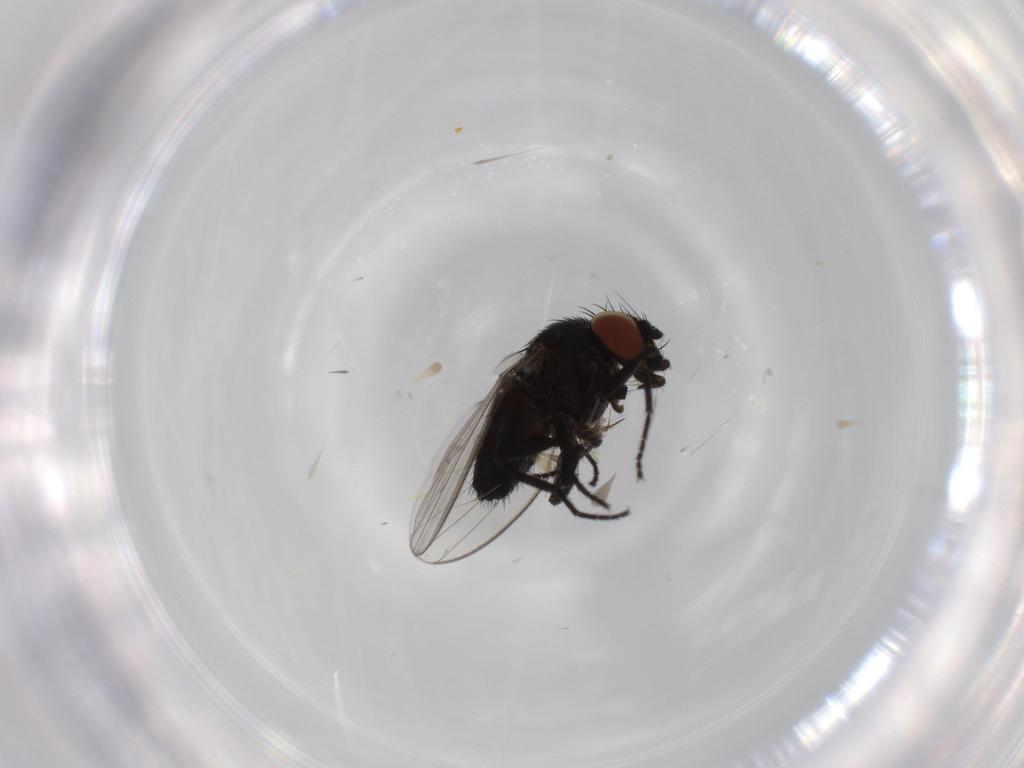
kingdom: Animalia
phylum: Arthropoda
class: Insecta
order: Diptera
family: Milichiidae
